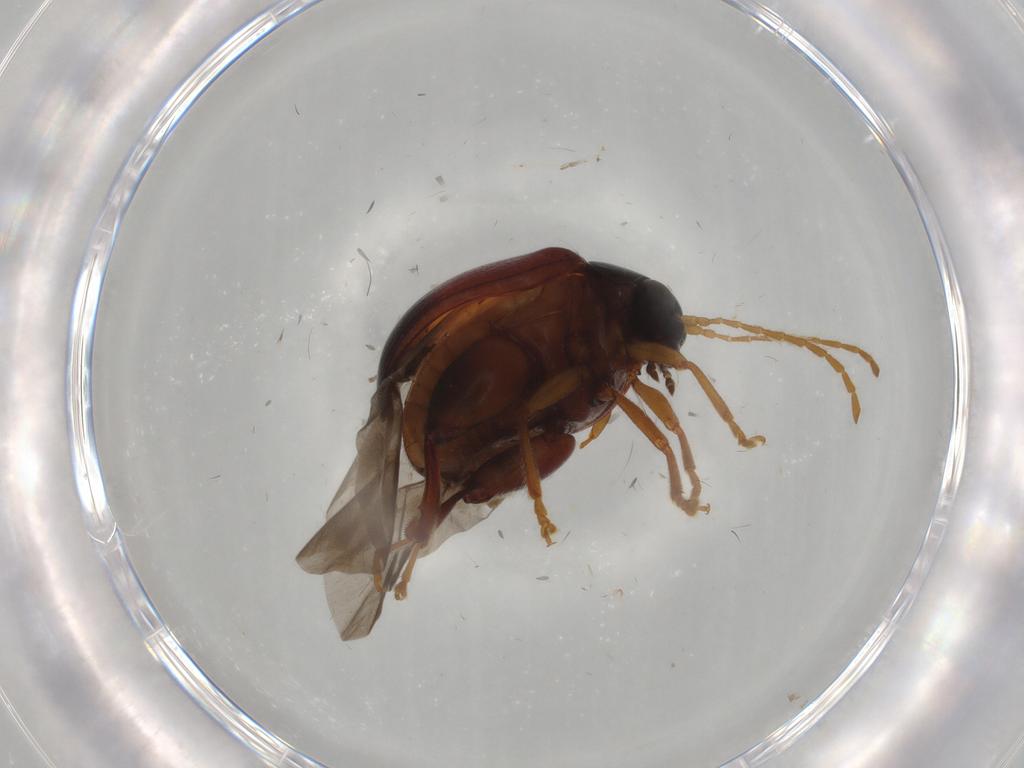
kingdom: Animalia
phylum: Arthropoda
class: Insecta
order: Coleoptera
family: Chrysomelidae
